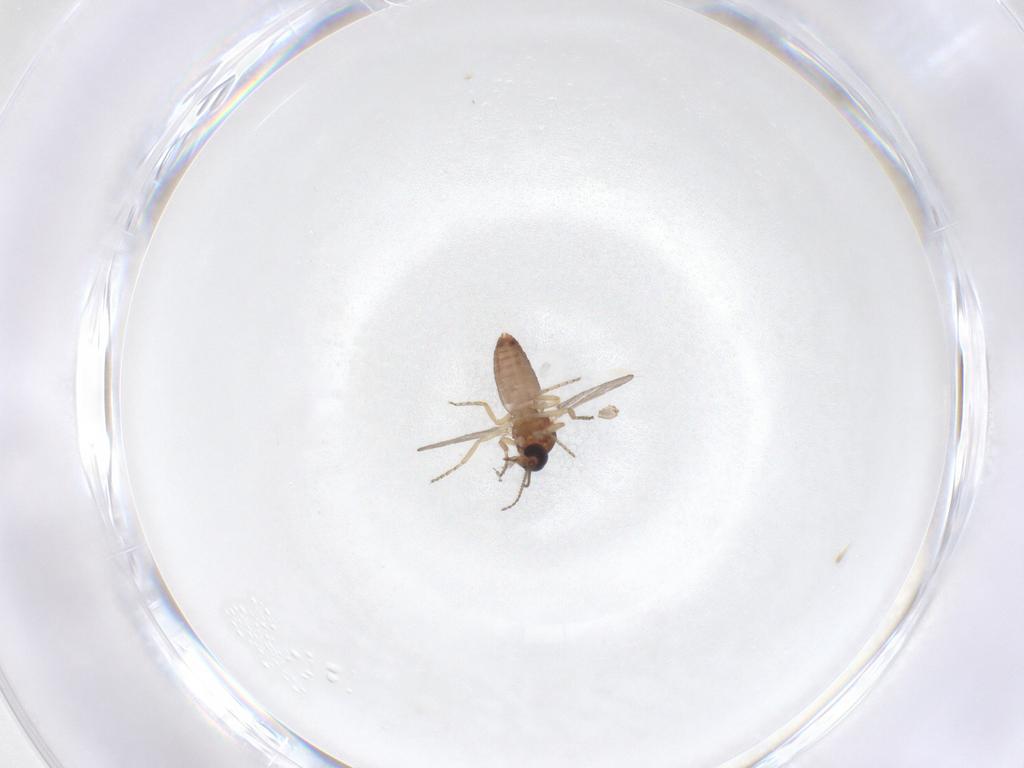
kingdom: Animalia
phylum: Arthropoda
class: Insecta
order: Diptera
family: Ceratopogonidae
